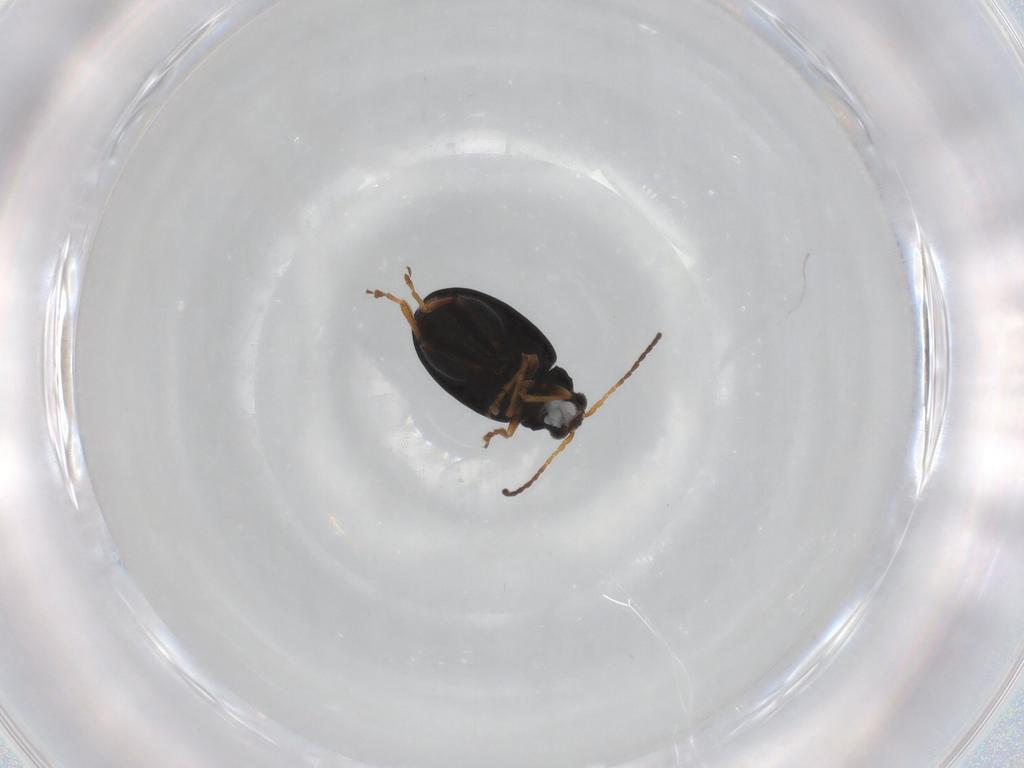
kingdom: Animalia
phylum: Arthropoda
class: Insecta
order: Coleoptera
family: Chrysomelidae
